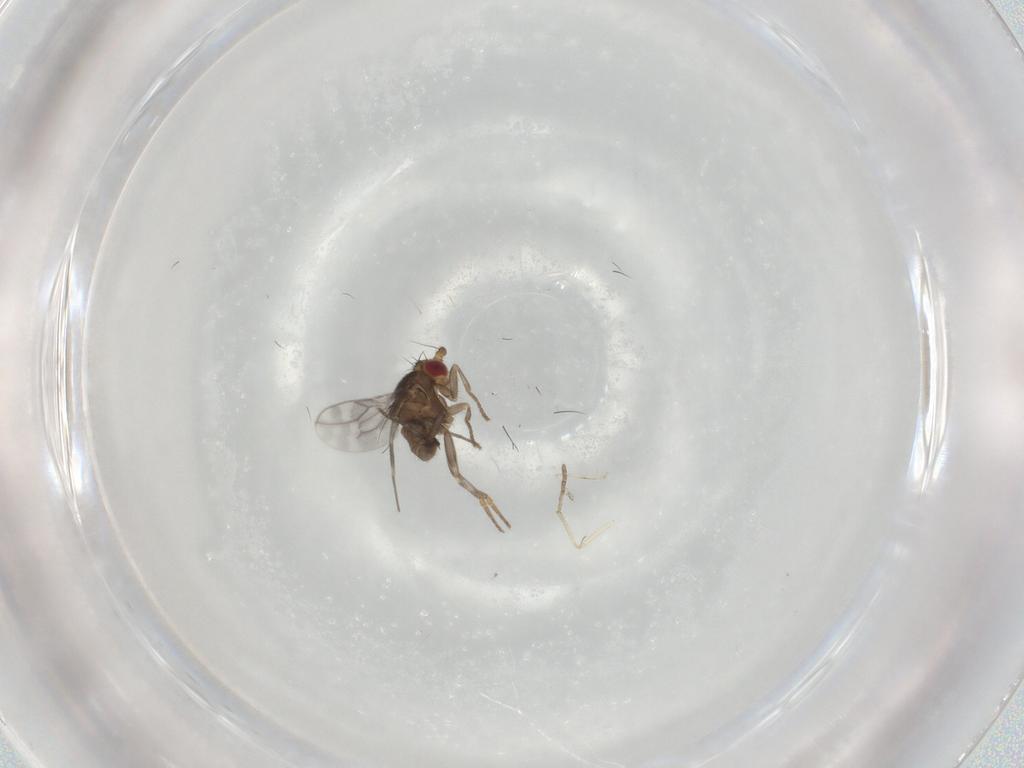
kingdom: Animalia
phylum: Arthropoda
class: Insecta
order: Diptera
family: Sphaeroceridae
